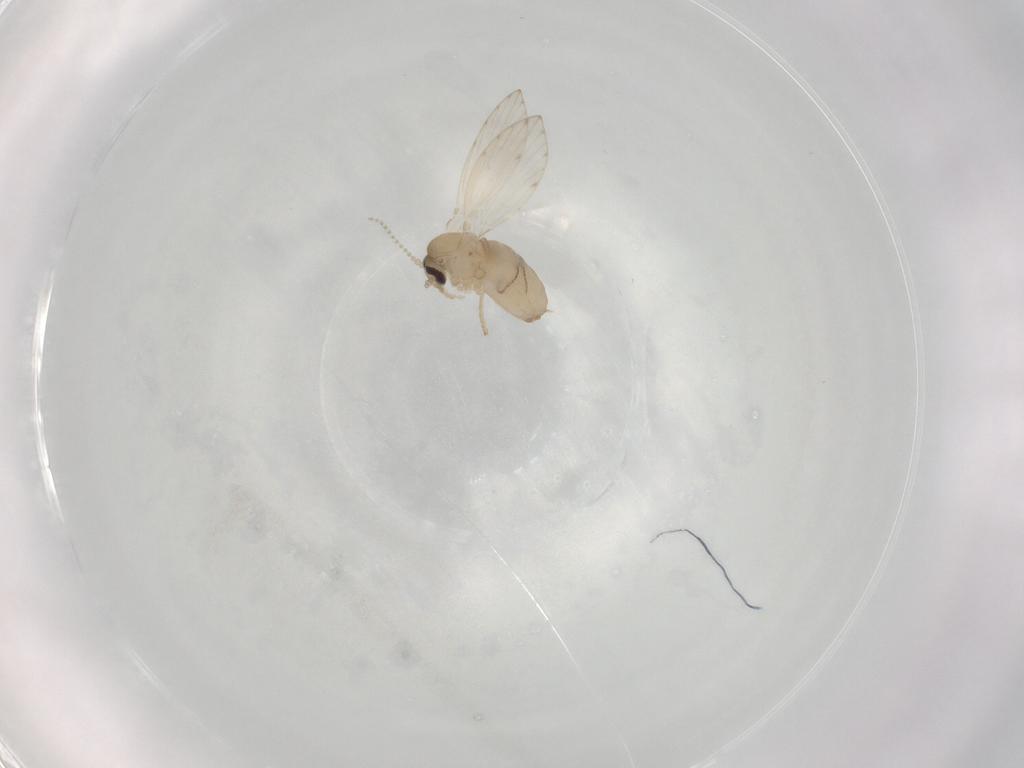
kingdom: Animalia
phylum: Arthropoda
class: Insecta
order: Diptera
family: Psychodidae
